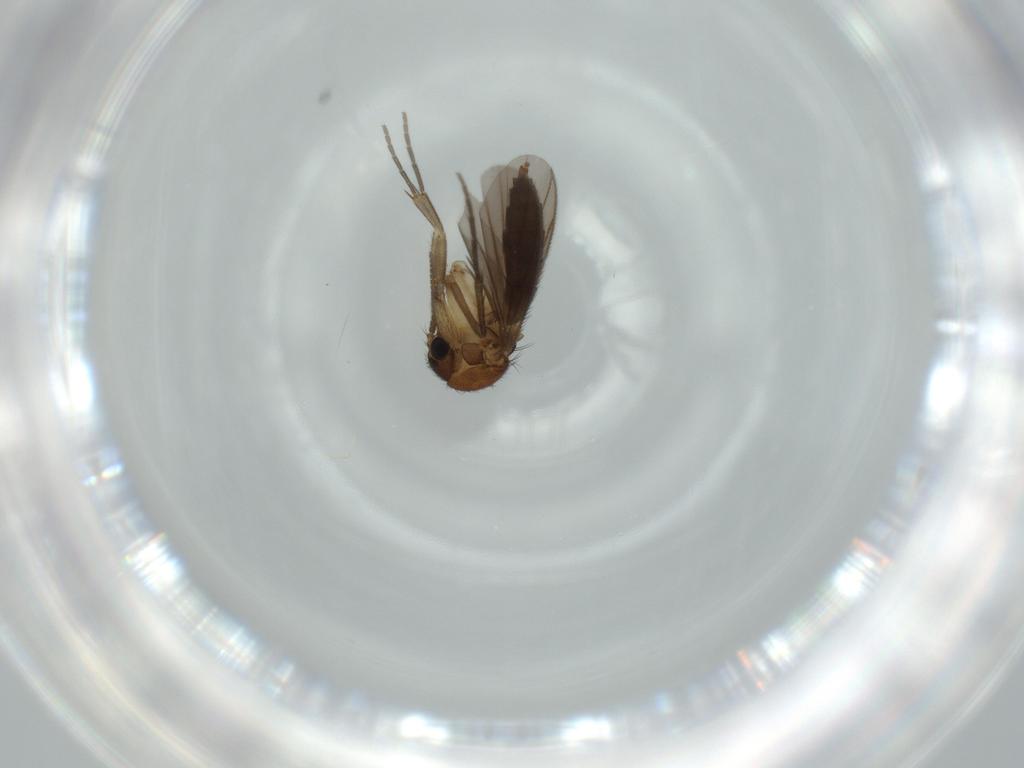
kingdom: Animalia
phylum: Arthropoda
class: Insecta
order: Diptera
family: Mycetophilidae
